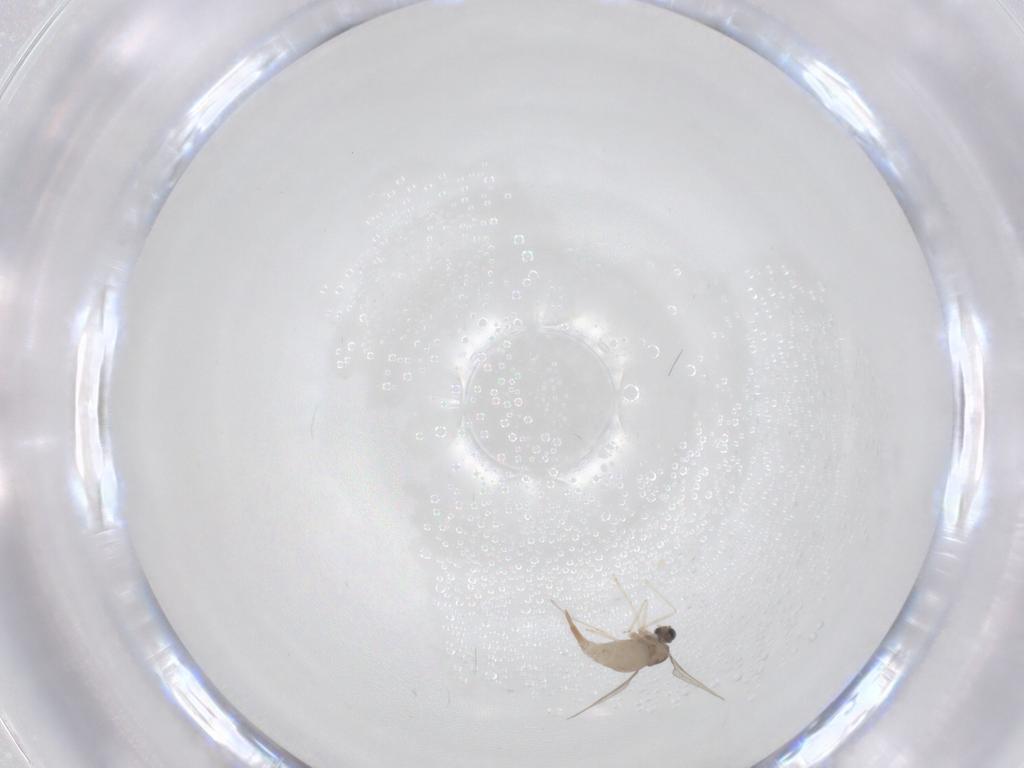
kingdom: Animalia
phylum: Arthropoda
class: Insecta
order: Diptera
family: Cecidomyiidae
